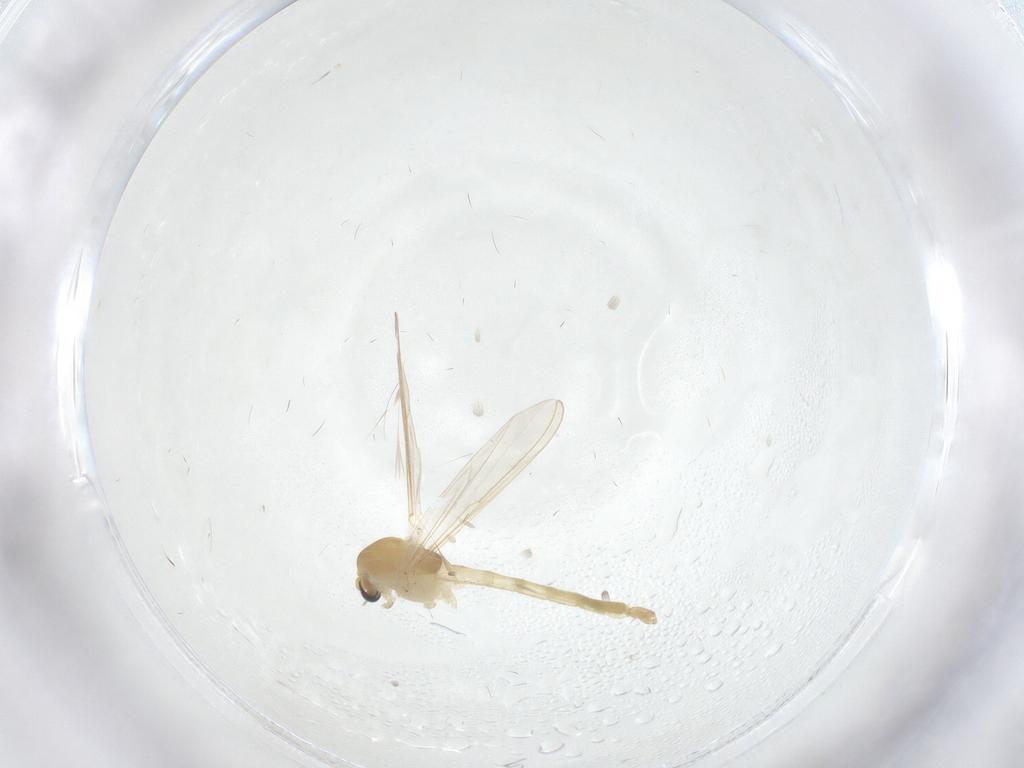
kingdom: Animalia
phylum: Arthropoda
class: Insecta
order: Diptera
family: Chironomidae
